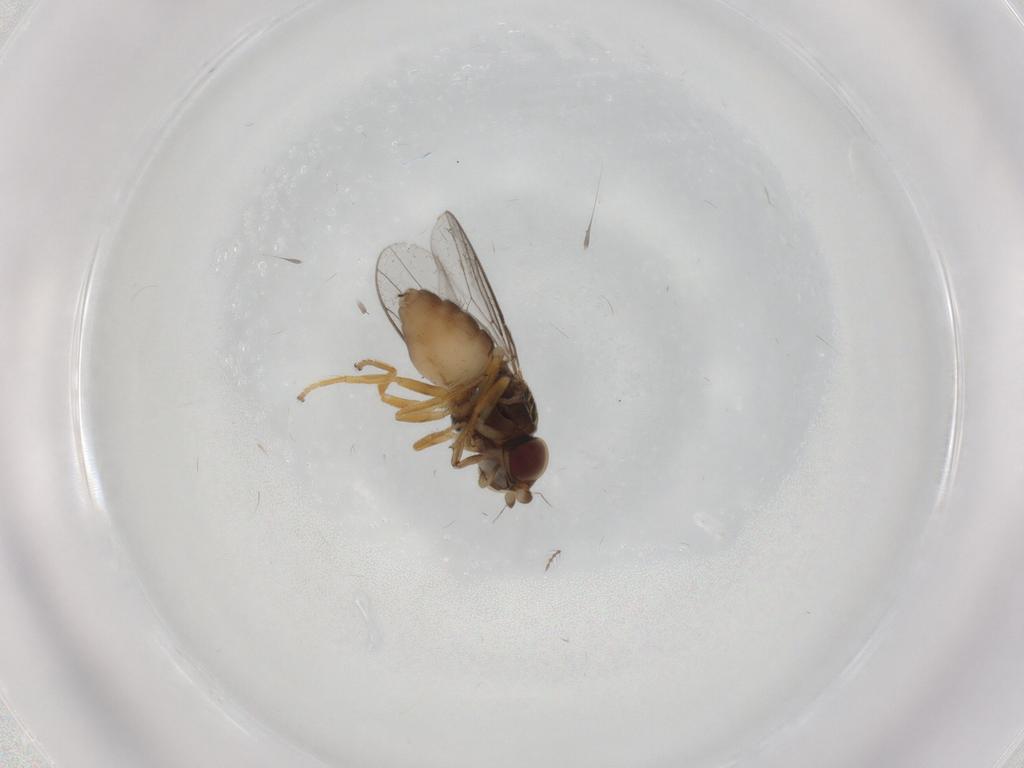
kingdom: Animalia
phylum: Arthropoda
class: Insecta
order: Diptera
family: Chloropidae
